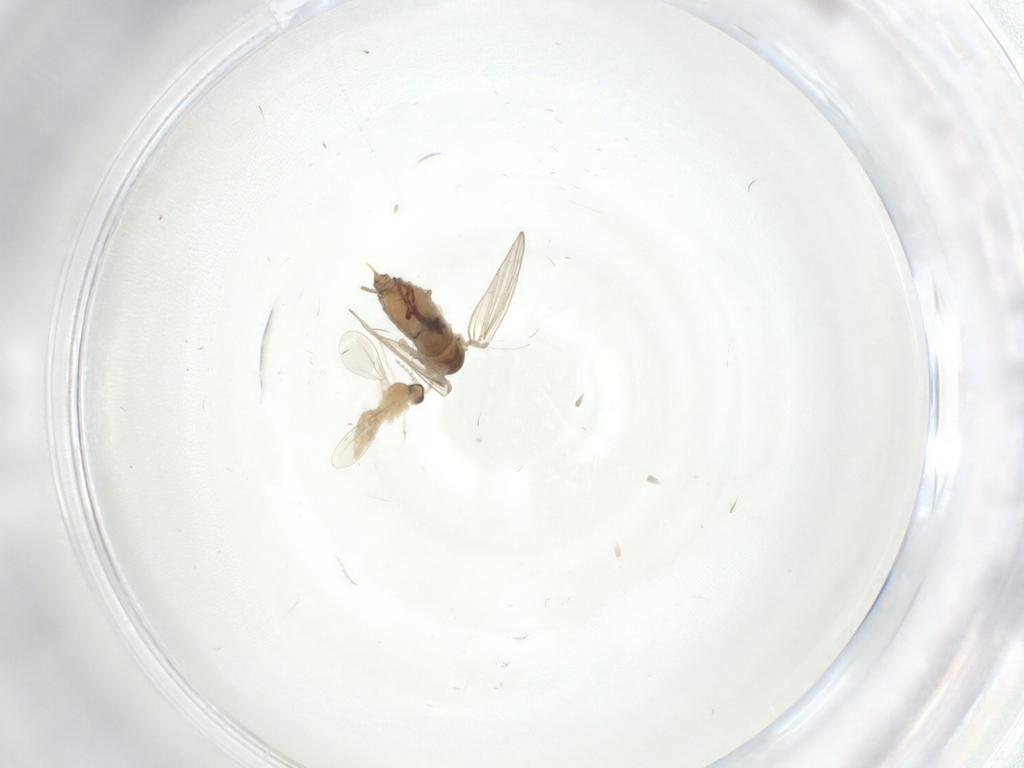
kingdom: Animalia
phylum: Arthropoda
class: Insecta
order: Diptera
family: Psychodidae
